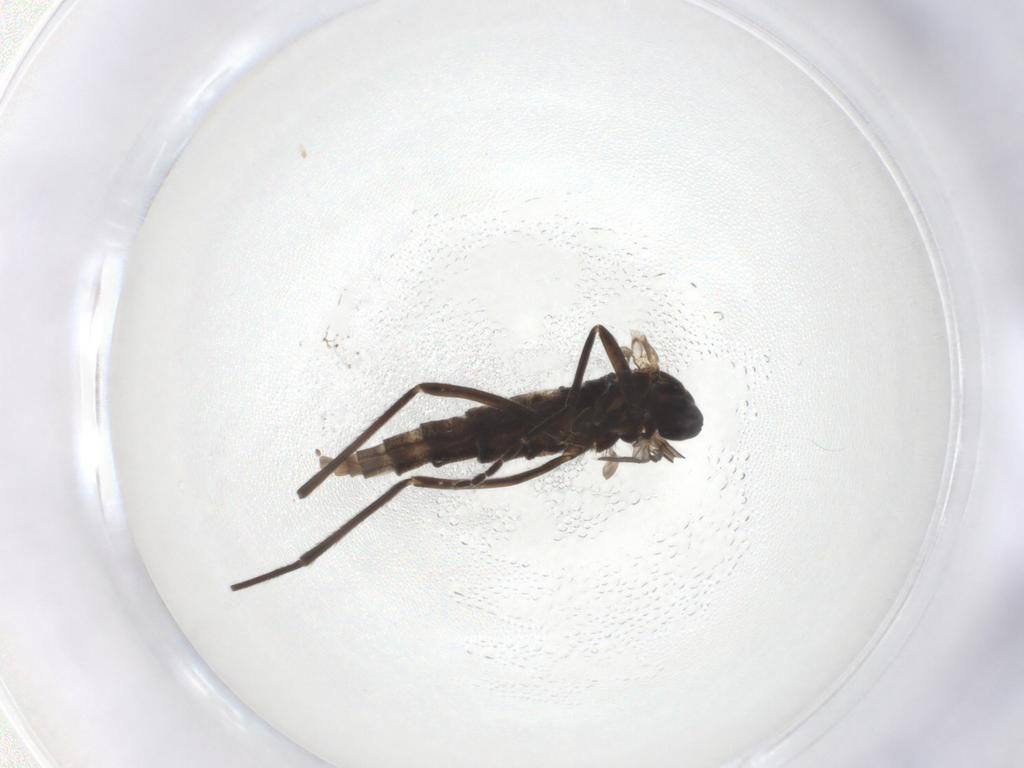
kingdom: Animalia
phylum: Arthropoda
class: Insecta
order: Diptera
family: Cecidomyiidae
